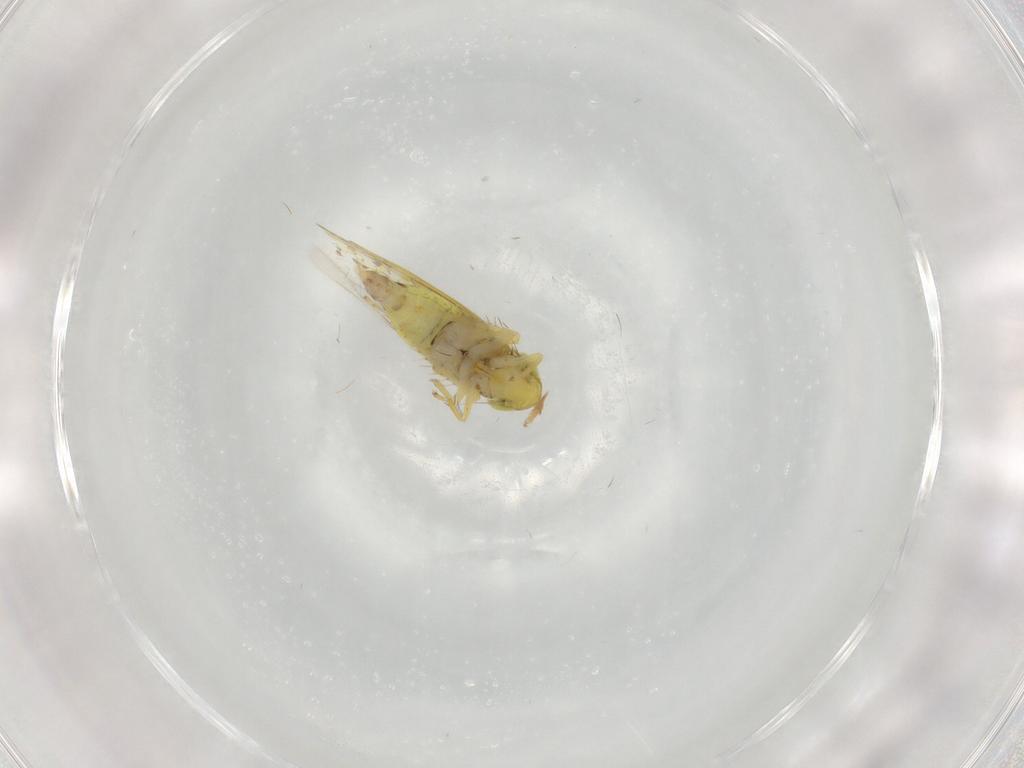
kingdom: Animalia
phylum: Arthropoda
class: Insecta
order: Hemiptera
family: Cicadellidae
